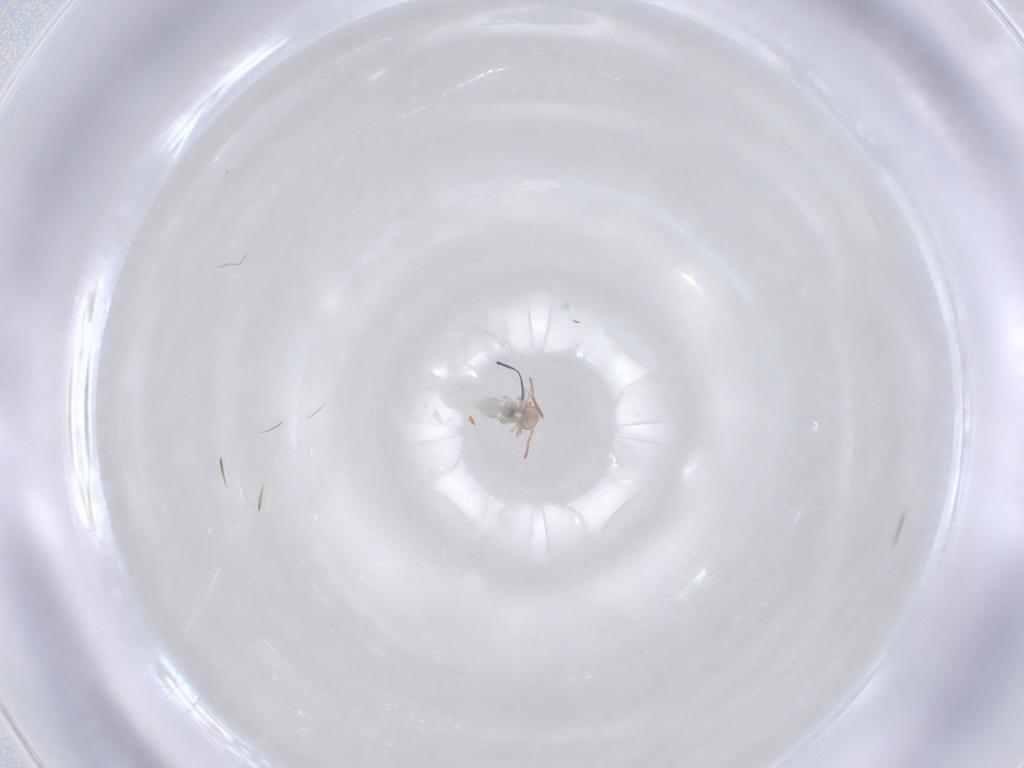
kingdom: Animalia
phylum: Arthropoda
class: Collembola
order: Symphypleona
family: Bourletiellidae
